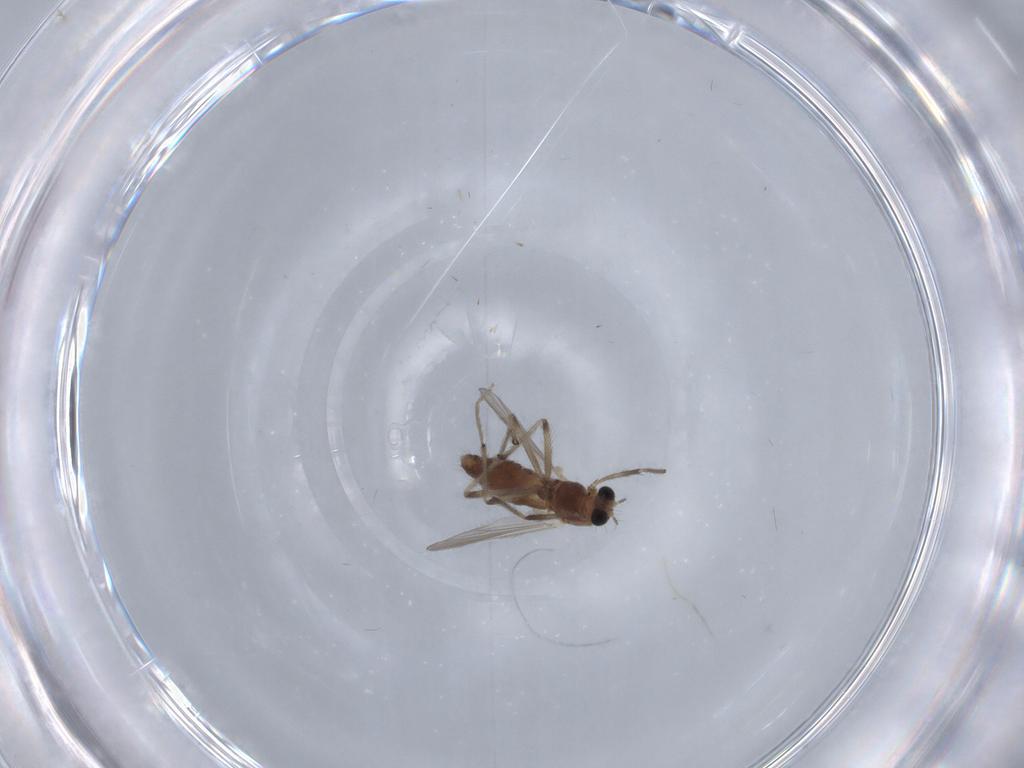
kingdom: Animalia
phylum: Arthropoda
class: Insecta
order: Diptera
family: Chironomidae
